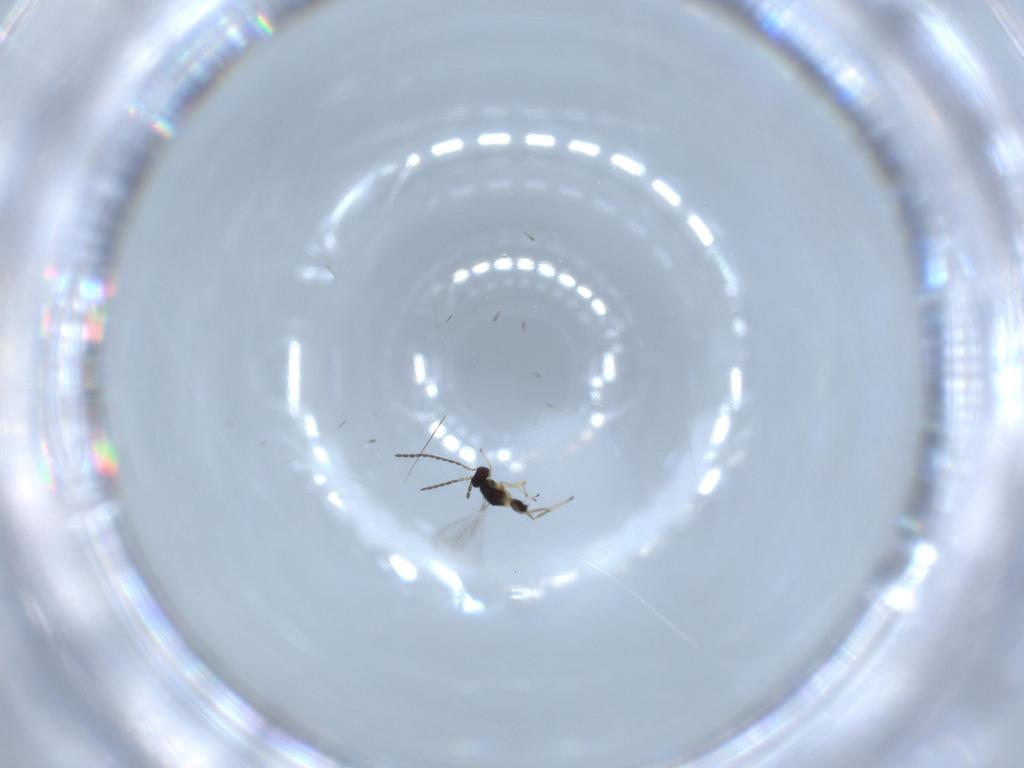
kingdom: Animalia
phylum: Arthropoda
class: Insecta
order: Hymenoptera
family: Mymaridae
